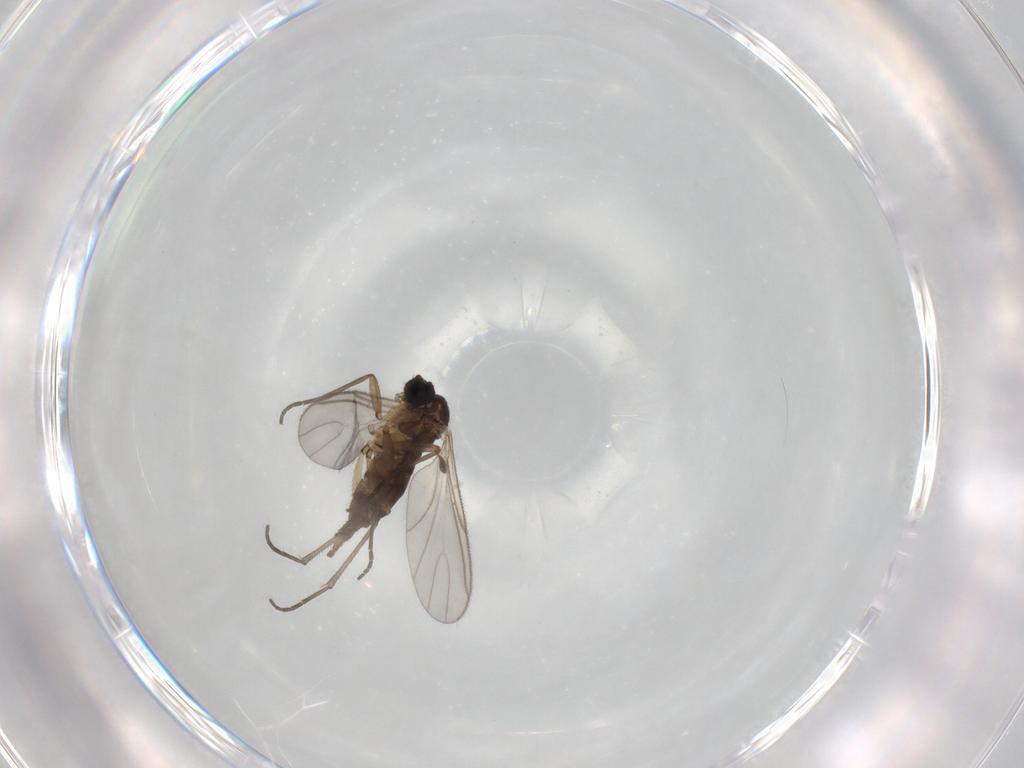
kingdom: Animalia
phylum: Arthropoda
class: Insecta
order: Diptera
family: Sciaridae
